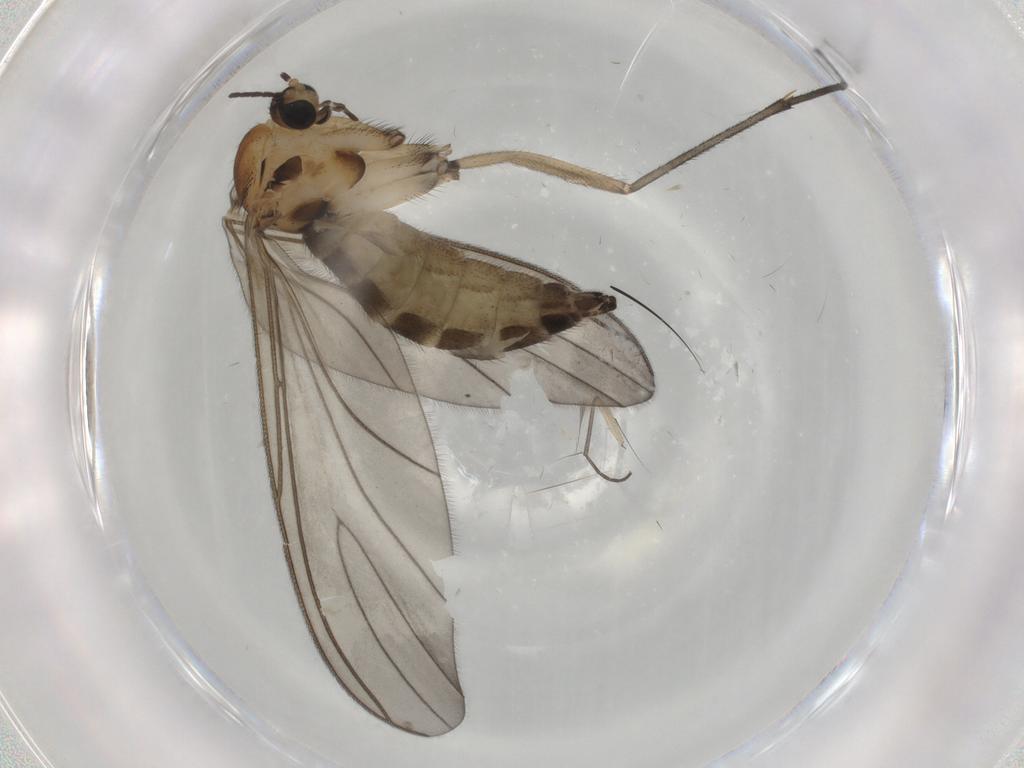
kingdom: Animalia
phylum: Arthropoda
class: Insecta
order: Diptera
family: Sciaridae
